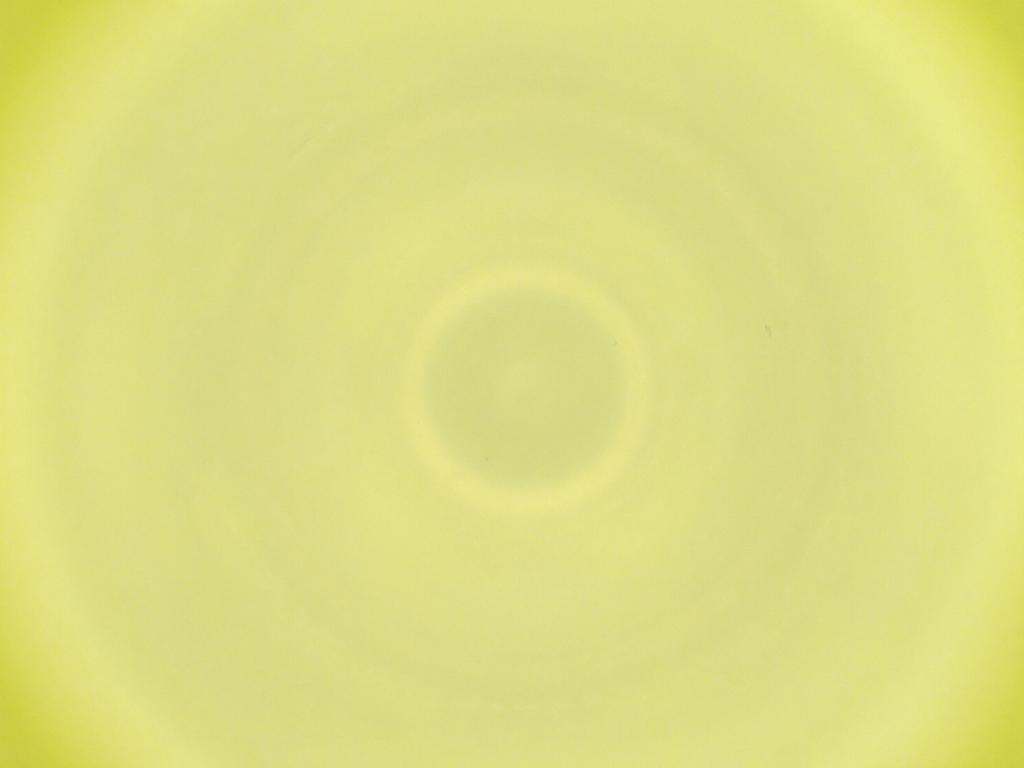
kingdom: Animalia
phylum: Arthropoda
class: Insecta
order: Diptera
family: Cecidomyiidae
